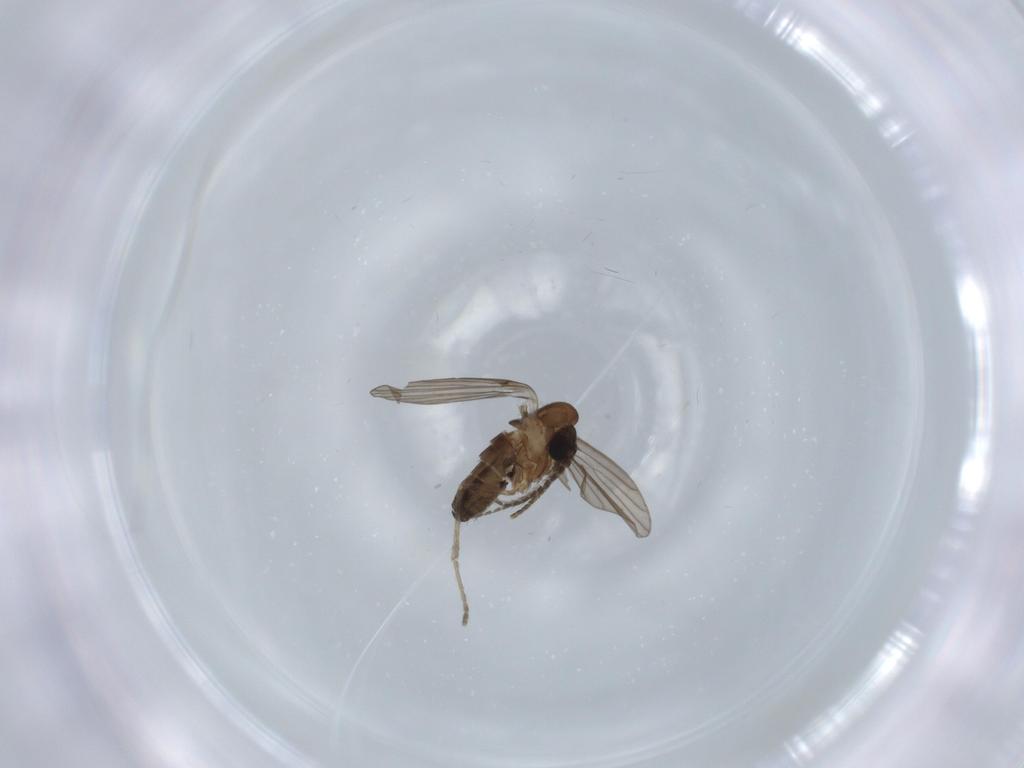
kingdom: Animalia
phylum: Arthropoda
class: Insecta
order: Diptera
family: Psychodidae
